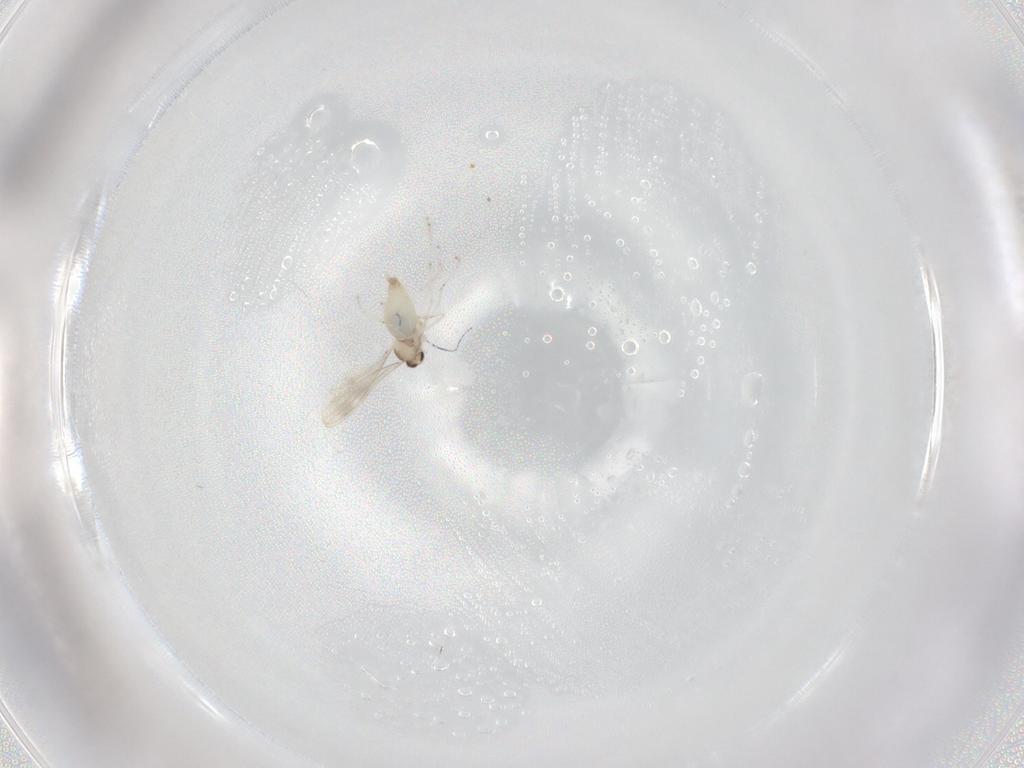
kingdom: Animalia
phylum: Arthropoda
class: Insecta
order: Diptera
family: Cecidomyiidae
